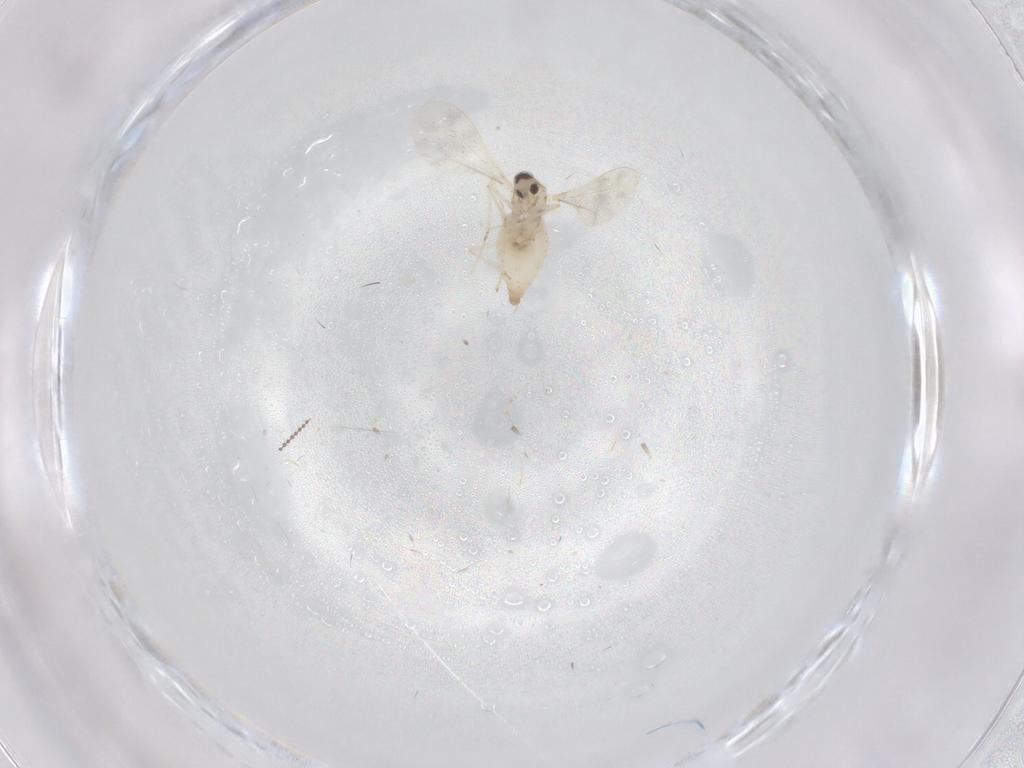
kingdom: Animalia
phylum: Arthropoda
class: Insecta
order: Diptera
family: Cecidomyiidae
